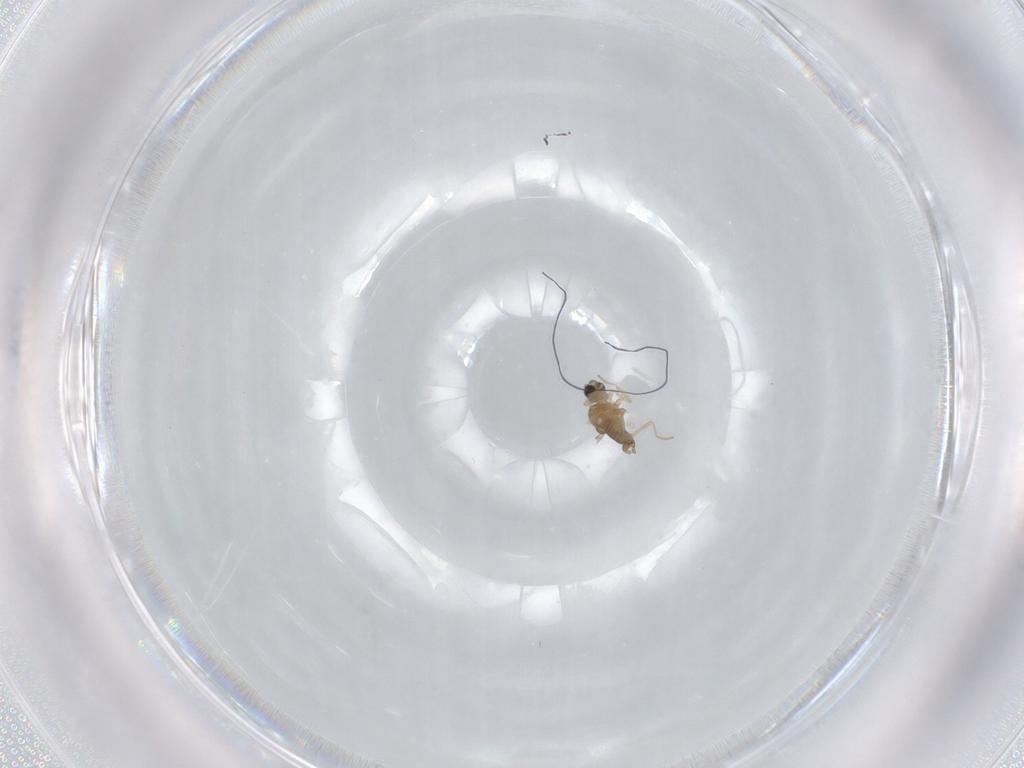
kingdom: Animalia
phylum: Arthropoda
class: Insecta
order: Diptera
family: Cecidomyiidae
